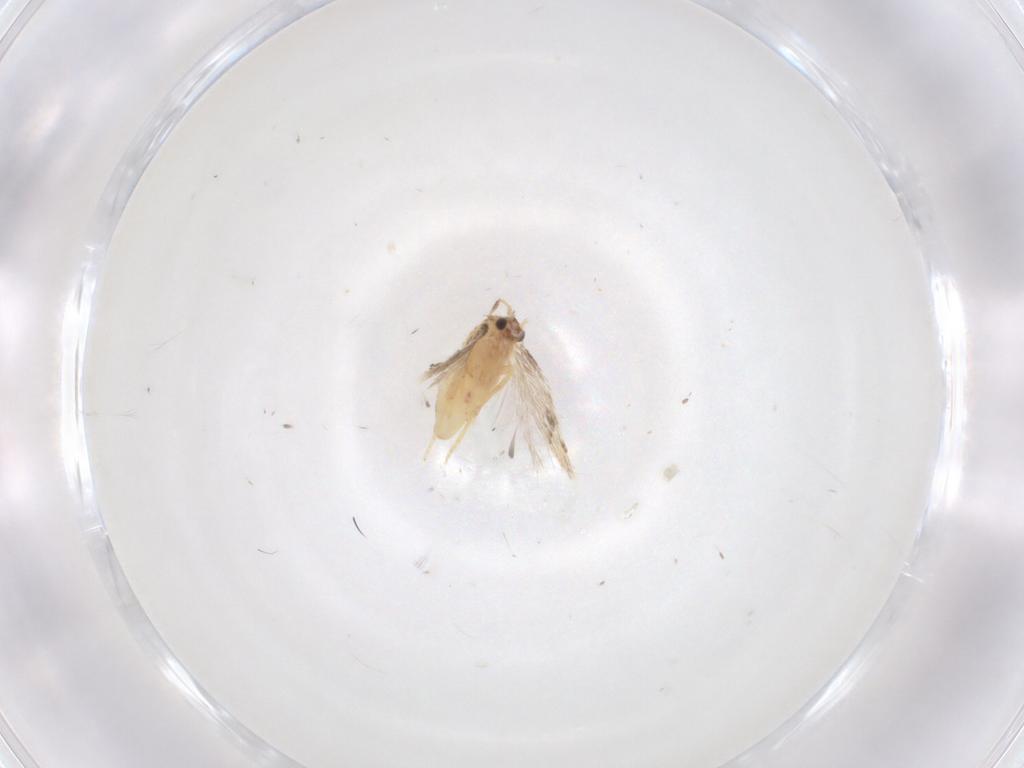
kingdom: Animalia
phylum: Arthropoda
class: Insecta
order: Lepidoptera
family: Nepticulidae
